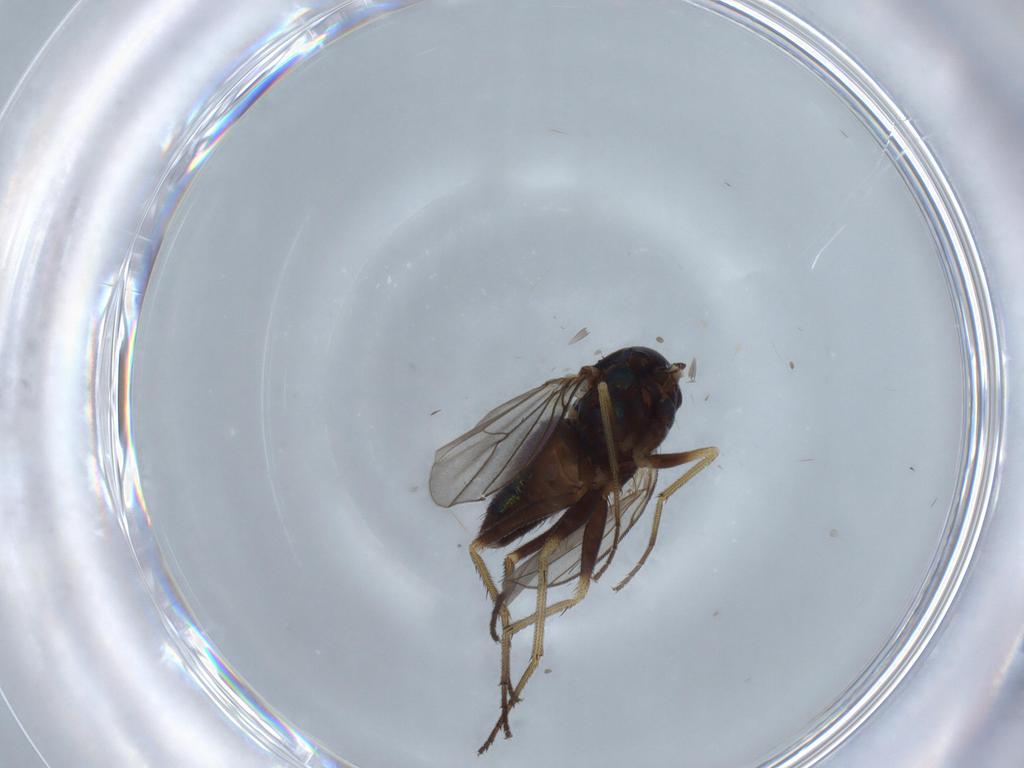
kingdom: Animalia
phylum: Arthropoda
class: Insecta
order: Diptera
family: Dolichopodidae
